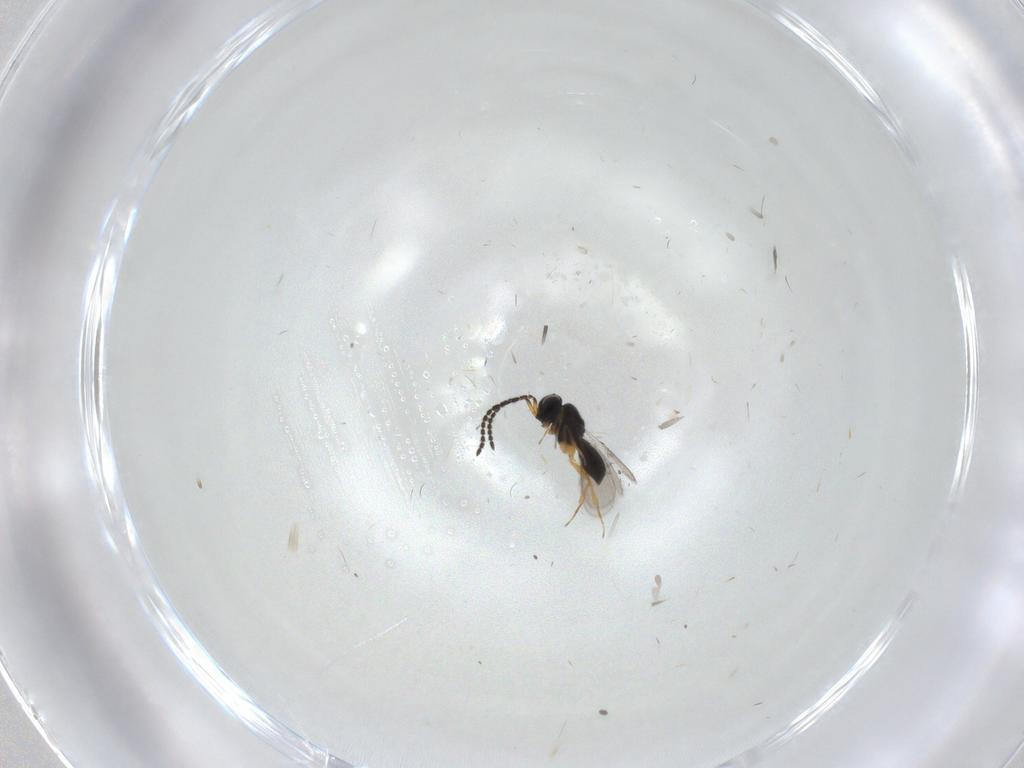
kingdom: Animalia
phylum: Arthropoda
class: Insecta
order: Hymenoptera
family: Scelionidae
